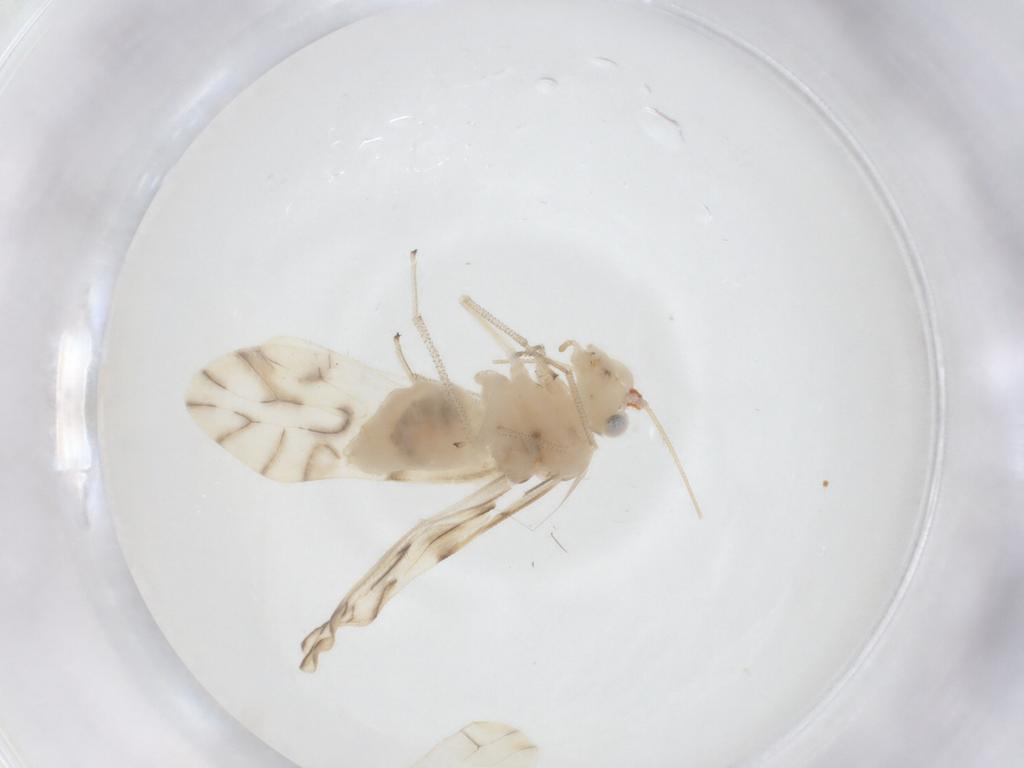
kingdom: Animalia
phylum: Arthropoda
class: Insecta
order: Psocodea
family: Caeciliusidae
